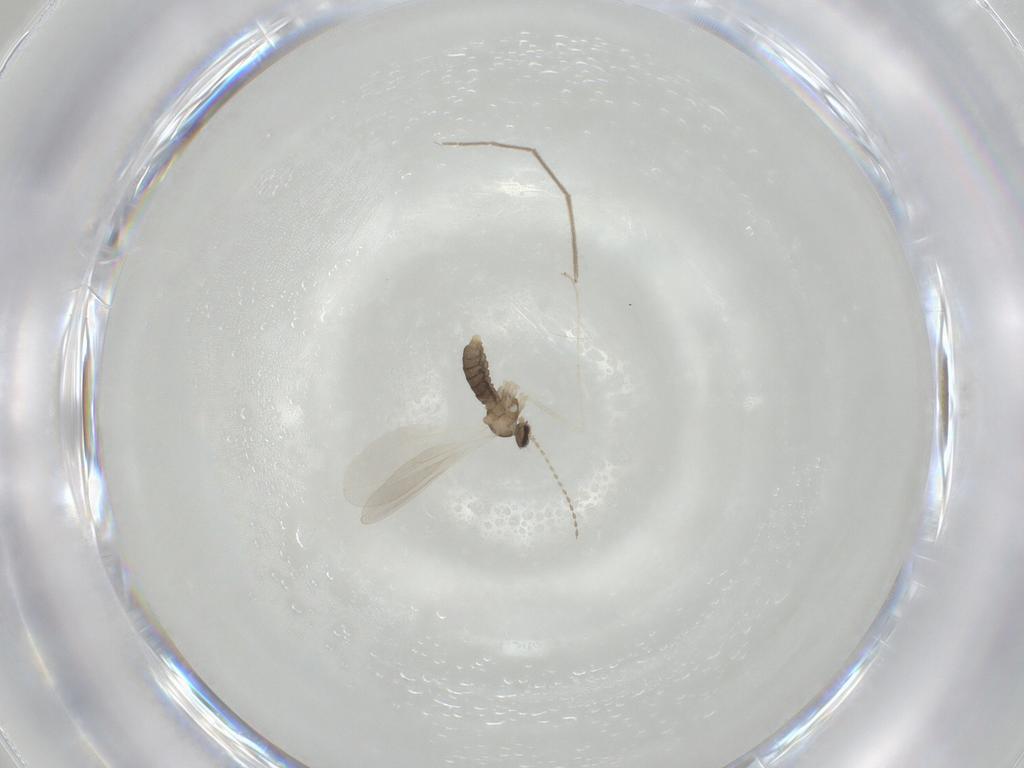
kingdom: Animalia
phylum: Arthropoda
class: Insecta
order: Diptera
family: Cecidomyiidae
